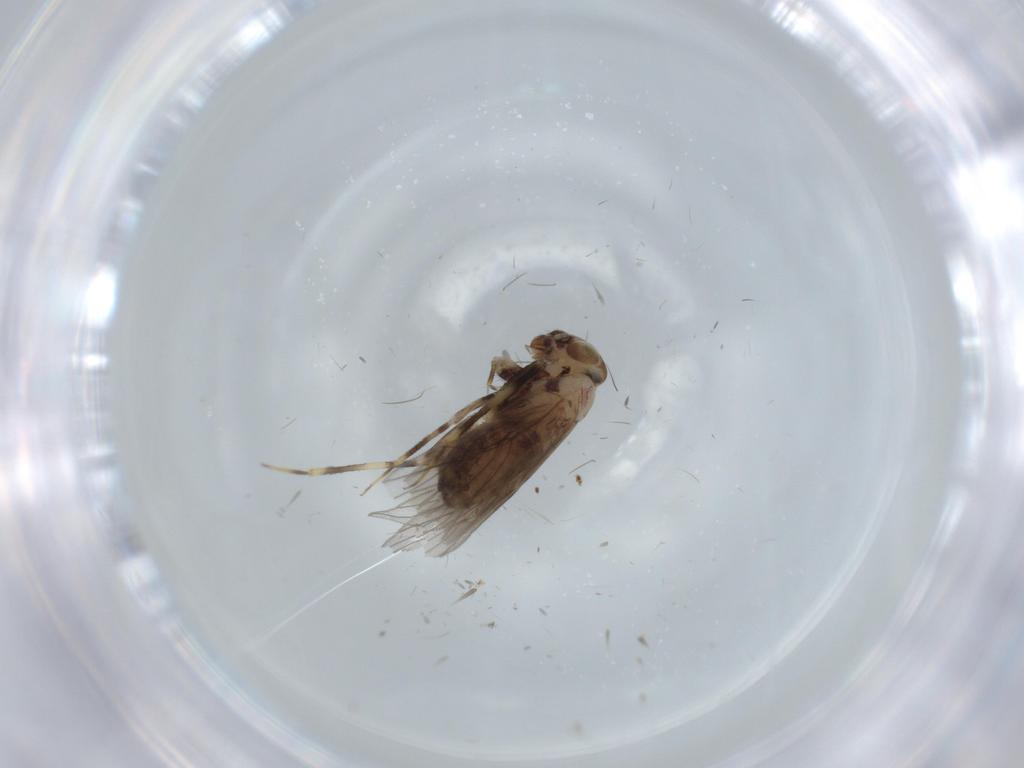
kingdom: Animalia
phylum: Arthropoda
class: Insecta
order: Psocodea
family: Lepidopsocidae
